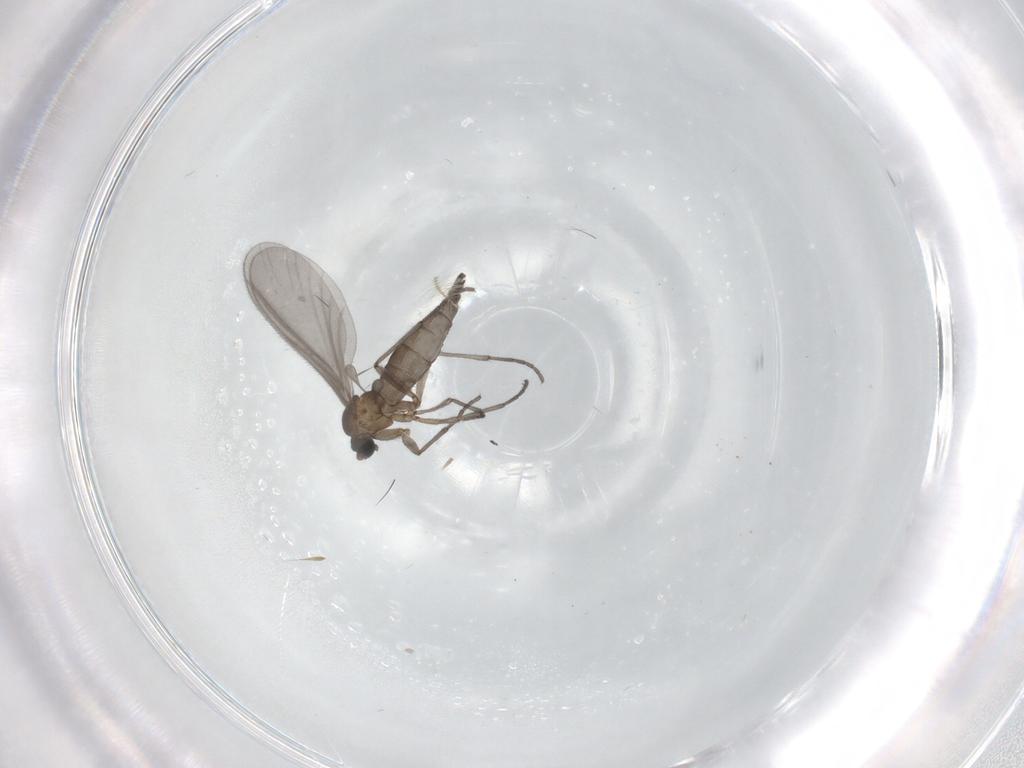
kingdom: Animalia
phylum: Arthropoda
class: Insecta
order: Diptera
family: Sciaridae
